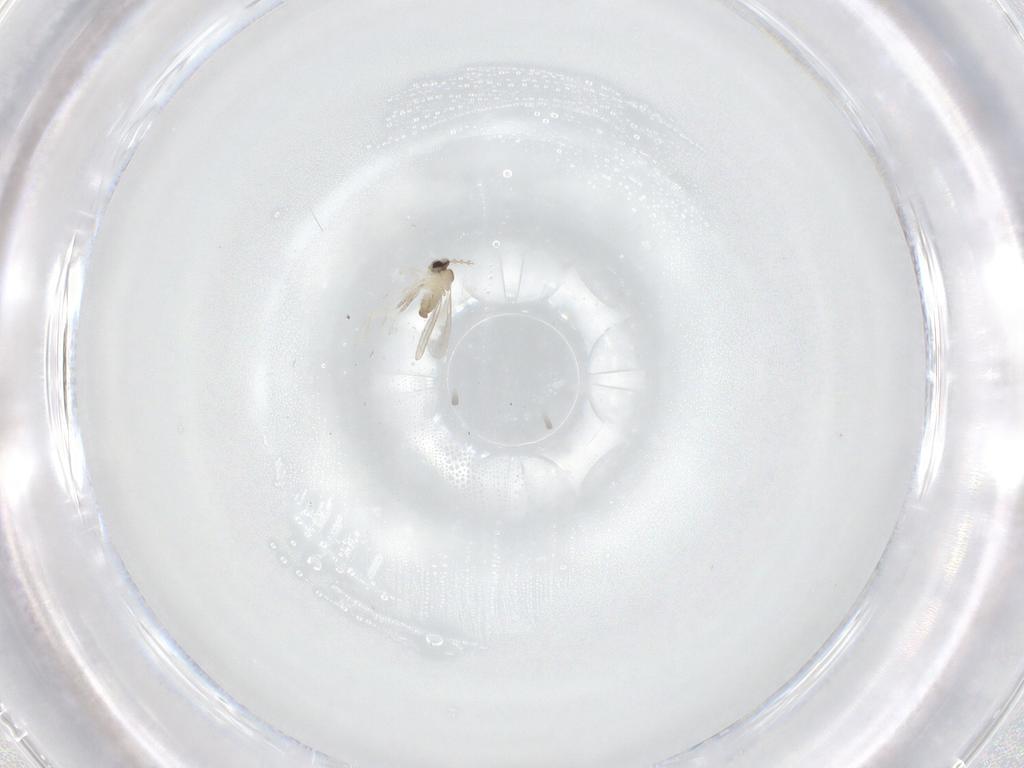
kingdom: Animalia
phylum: Arthropoda
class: Insecta
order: Diptera
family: Cecidomyiidae
